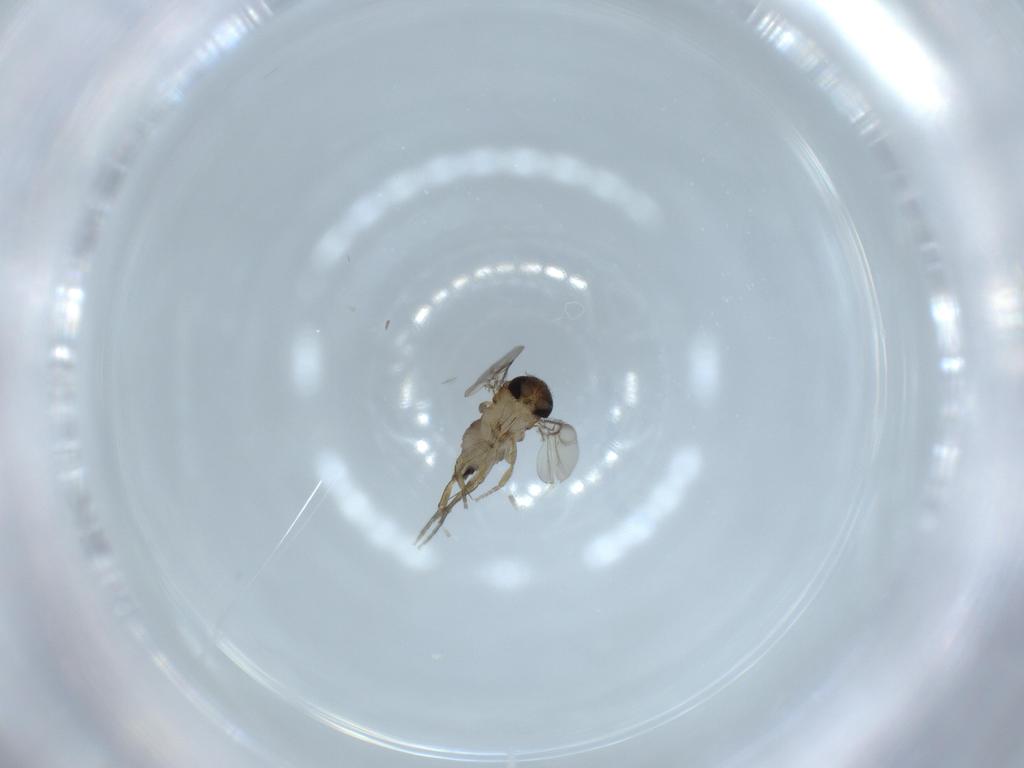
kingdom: Animalia
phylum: Arthropoda
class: Insecta
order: Diptera
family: Phoridae
